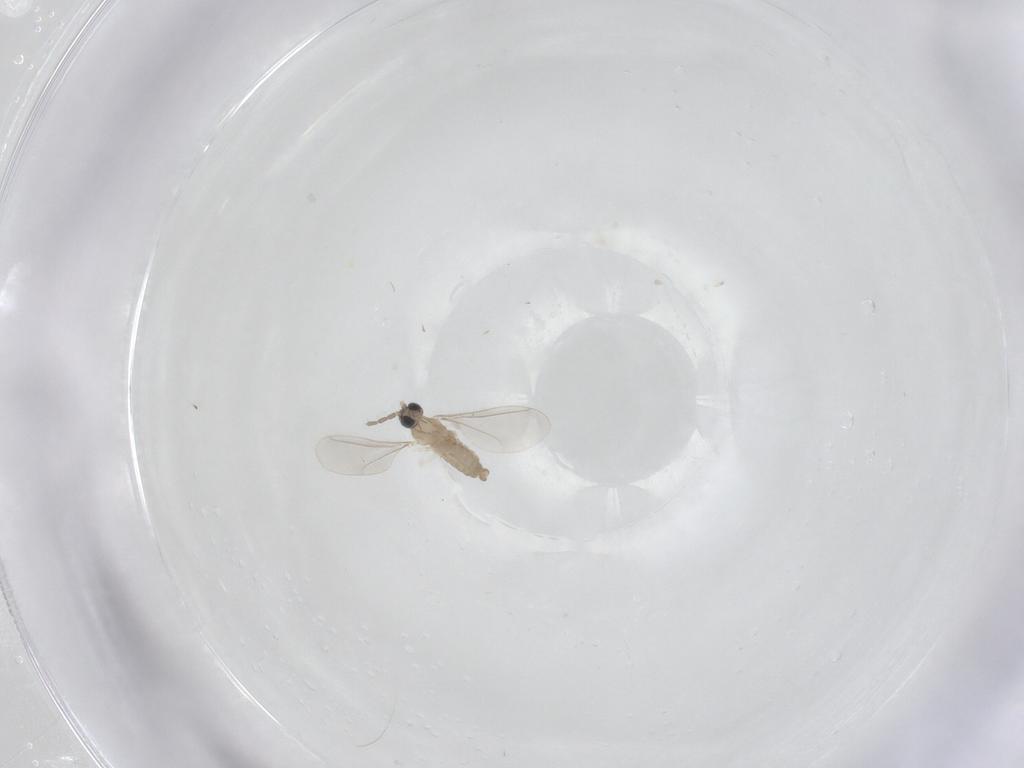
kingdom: Animalia
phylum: Arthropoda
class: Insecta
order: Diptera
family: Cecidomyiidae
